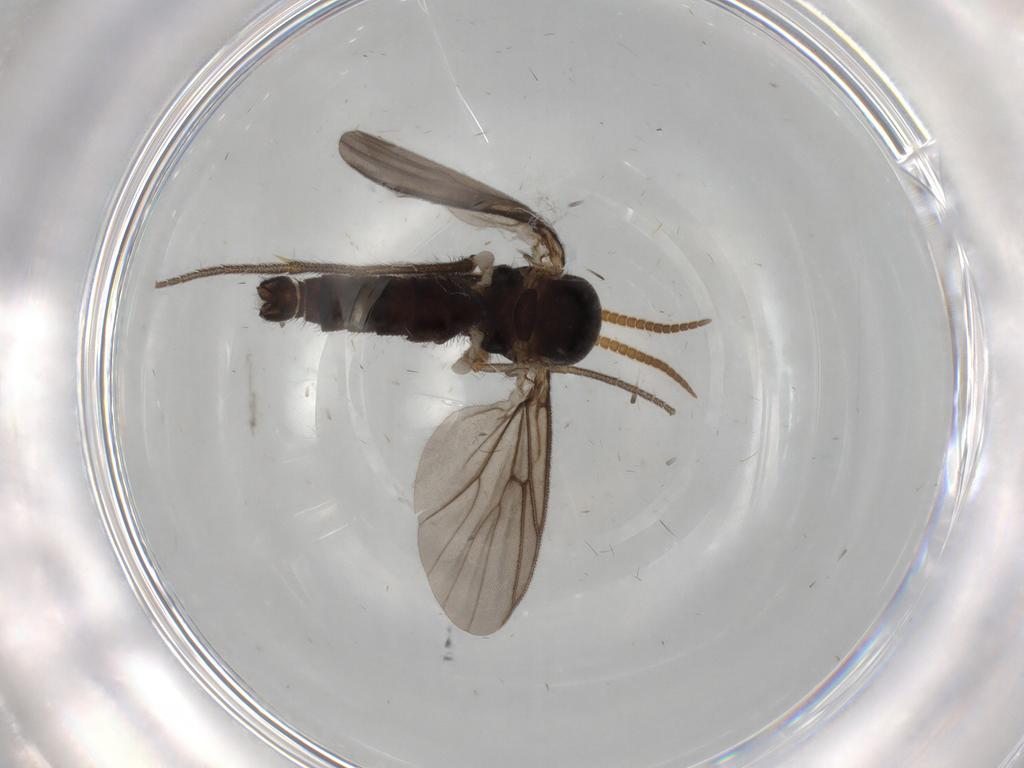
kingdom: Animalia
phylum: Arthropoda
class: Insecta
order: Diptera
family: Mycetophilidae
